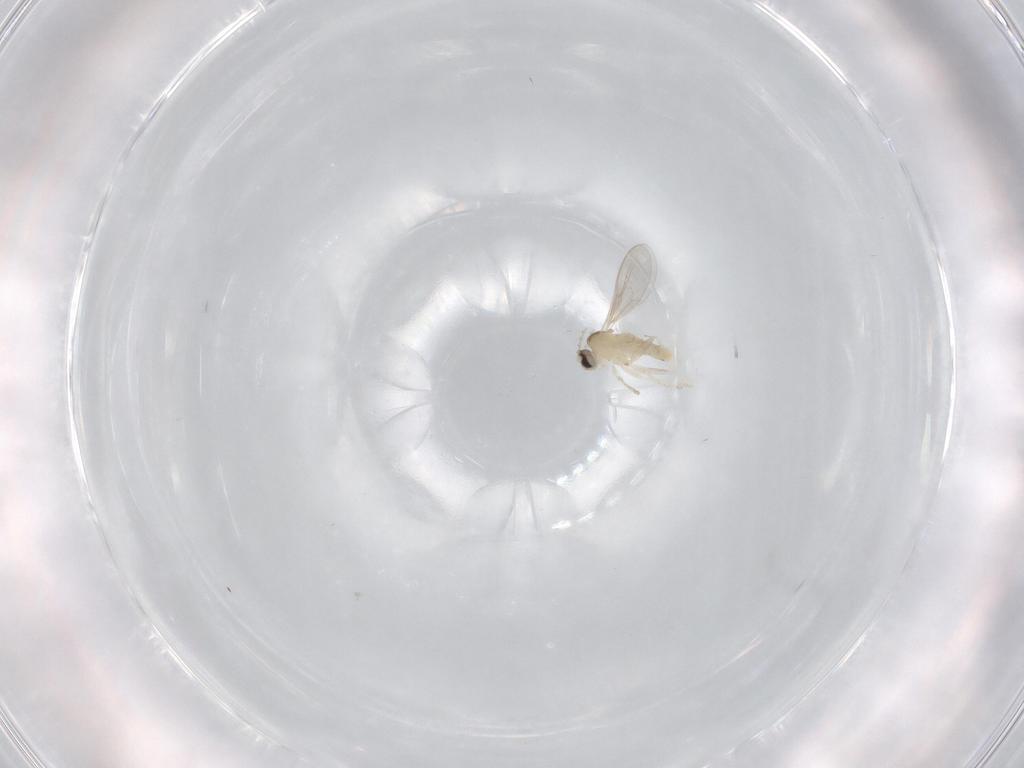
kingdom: Animalia
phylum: Arthropoda
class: Insecta
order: Diptera
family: Cecidomyiidae
